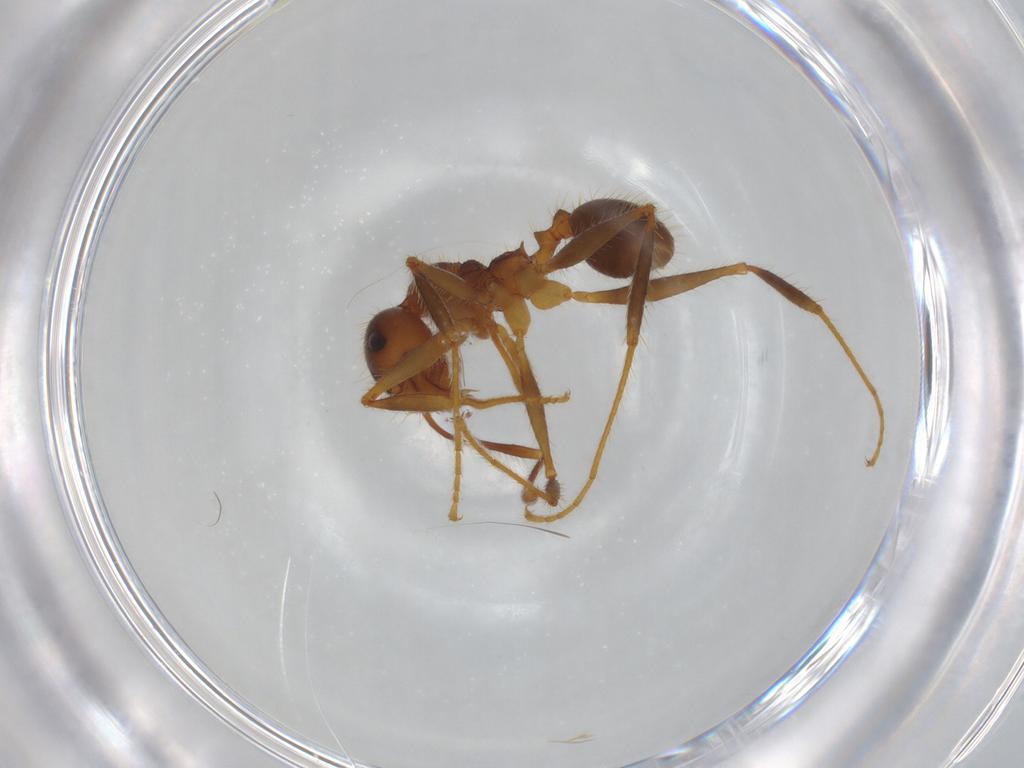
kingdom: Animalia
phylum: Arthropoda
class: Insecta
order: Hymenoptera
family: Formicidae
